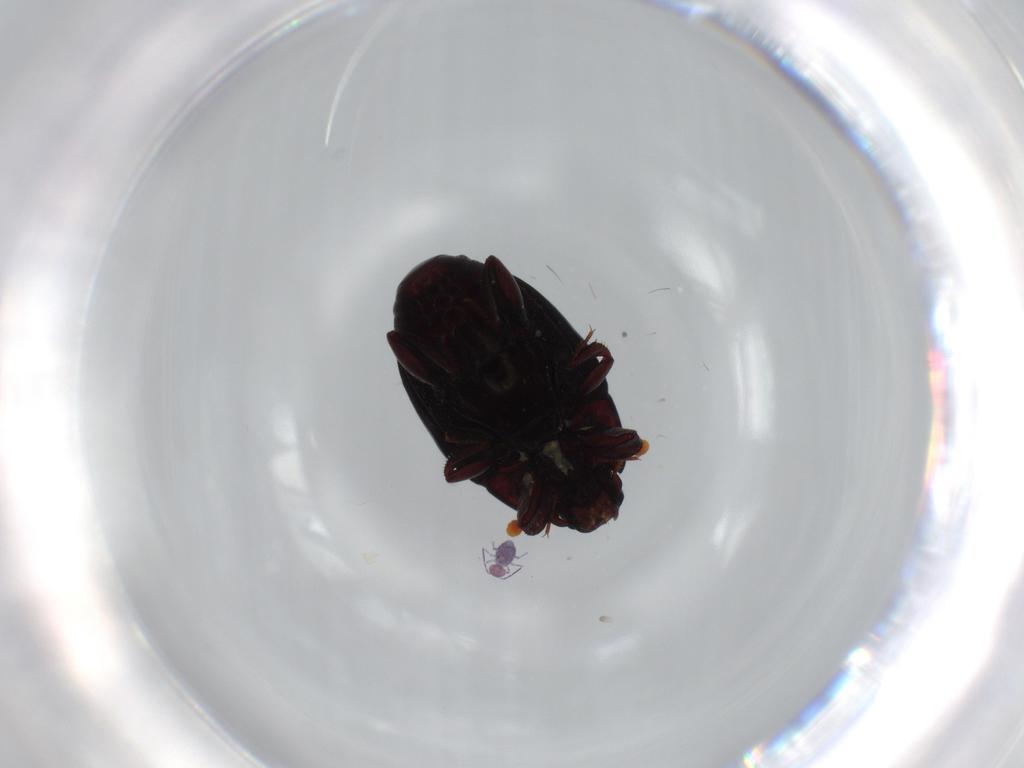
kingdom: Animalia
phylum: Arthropoda
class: Insecta
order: Coleoptera
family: Histeridae
